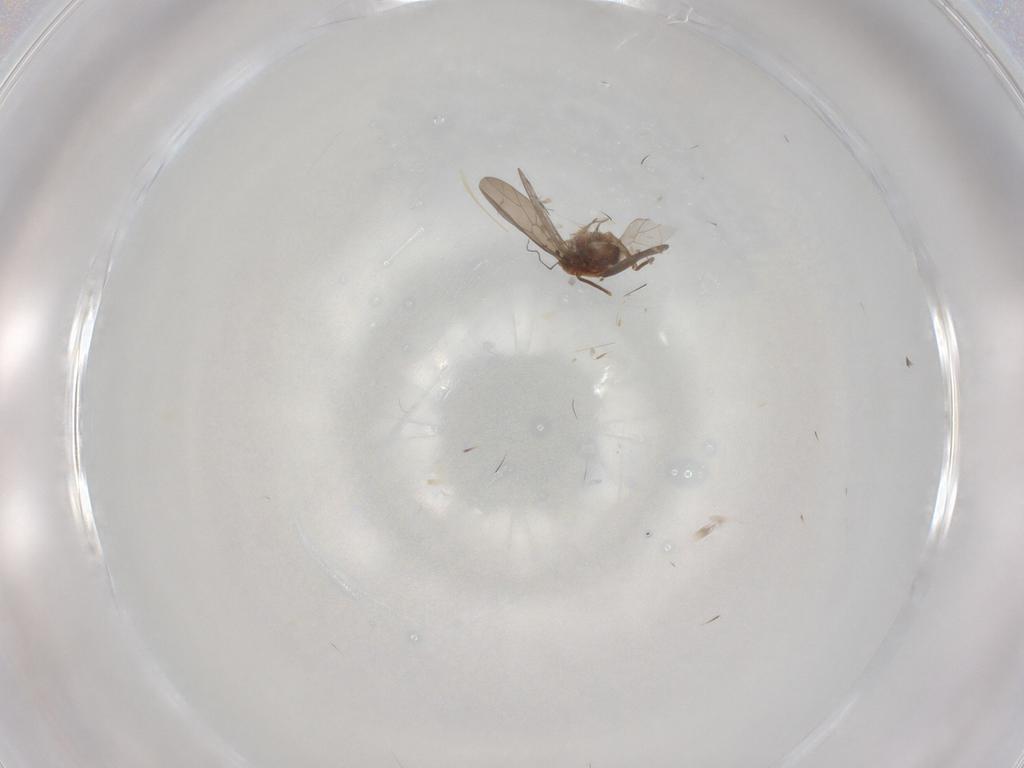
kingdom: Animalia
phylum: Arthropoda
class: Insecta
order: Psocodea
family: Lepidopsocidae
